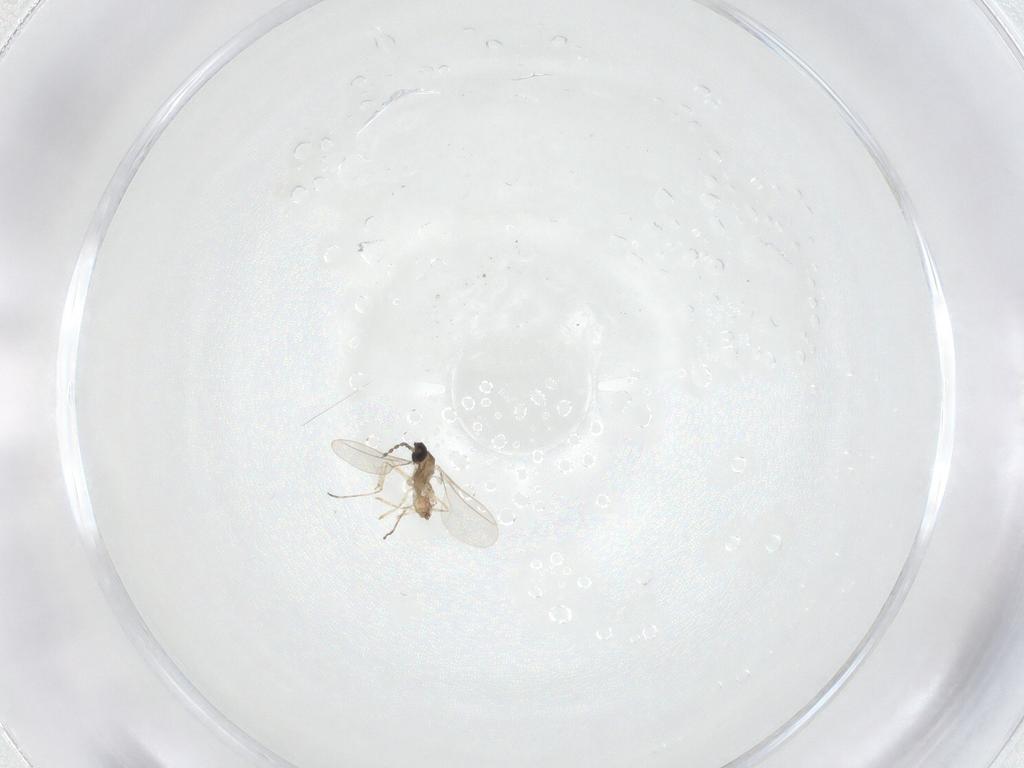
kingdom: Animalia
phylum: Arthropoda
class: Insecta
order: Diptera
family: Cecidomyiidae
